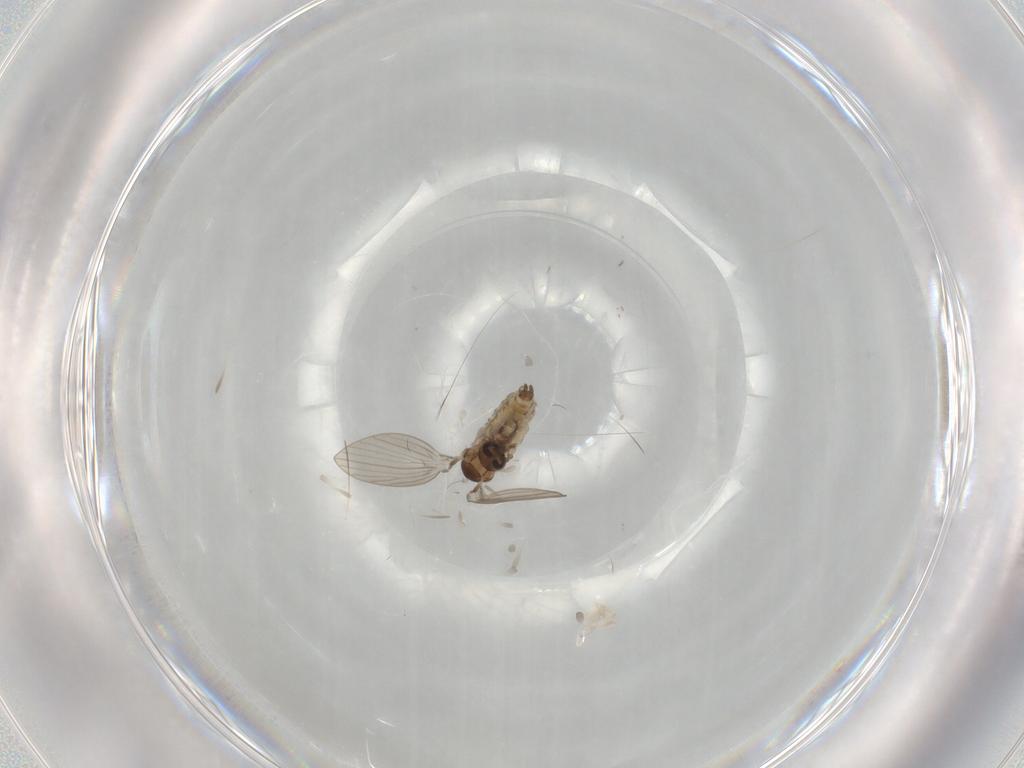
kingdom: Animalia
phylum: Arthropoda
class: Insecta
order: Diptera
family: Psychodidae
